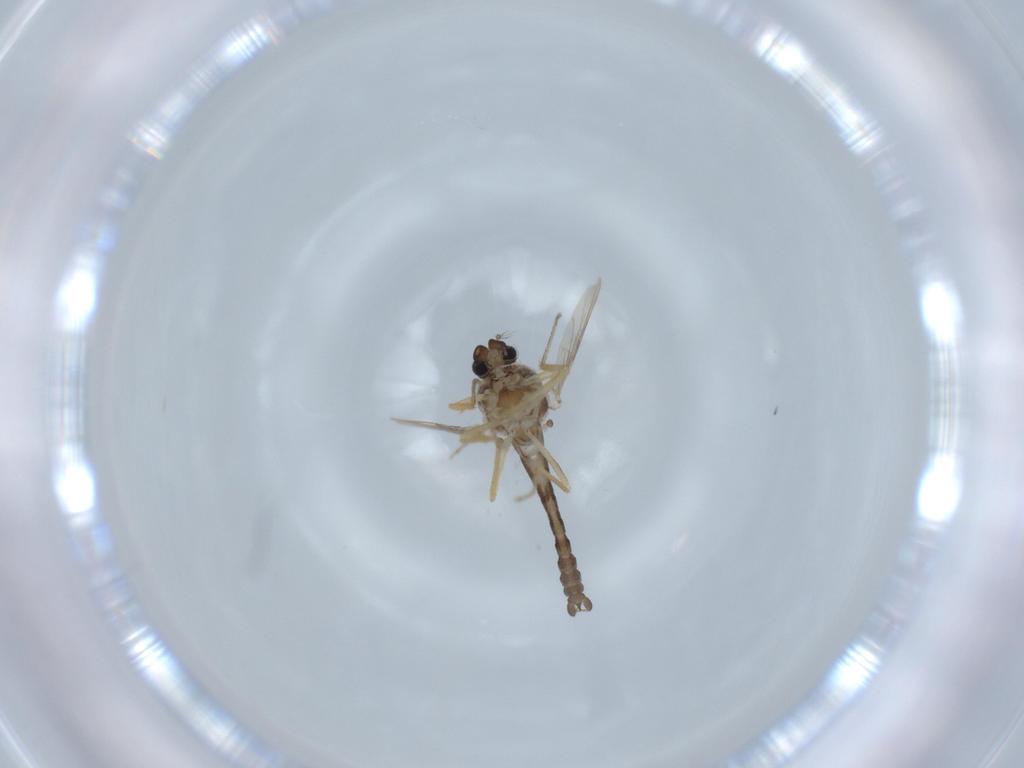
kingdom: Animalia
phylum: Arthropoda
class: Insecta
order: Diptera
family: Ceratopogonidae
